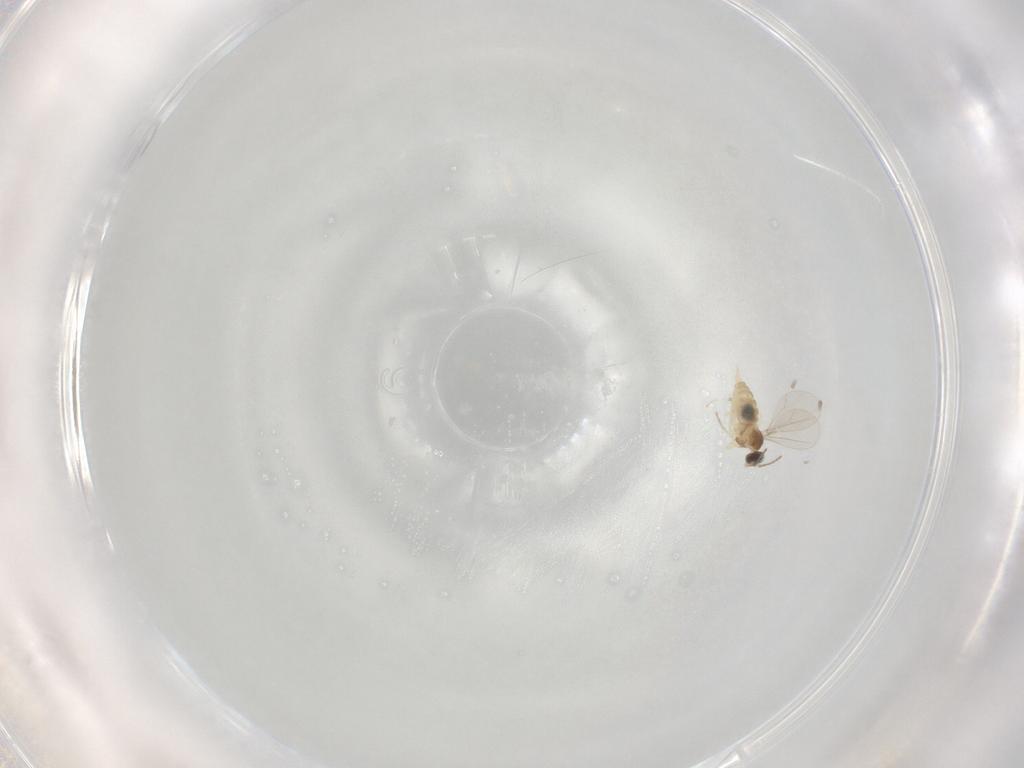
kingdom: Animalia
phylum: Arthropoda
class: Insecta
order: Diptera
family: Cecidomyiidae
